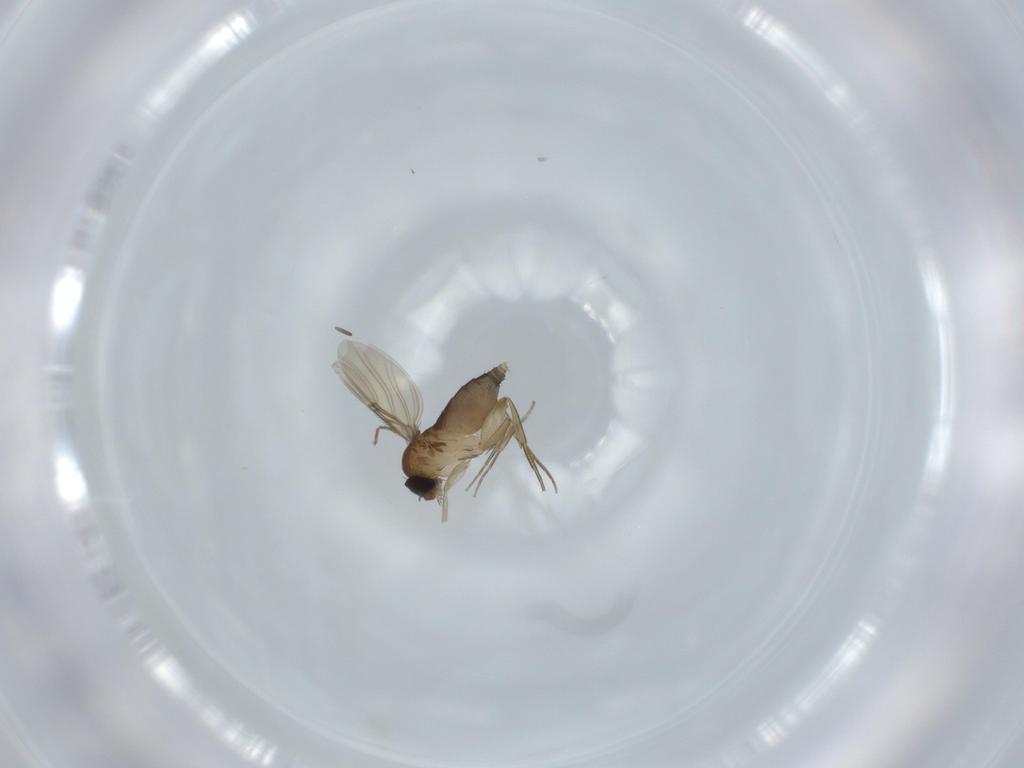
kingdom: Animalia
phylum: Arthropoda
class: Insecta
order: Diptera
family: Phoridae
